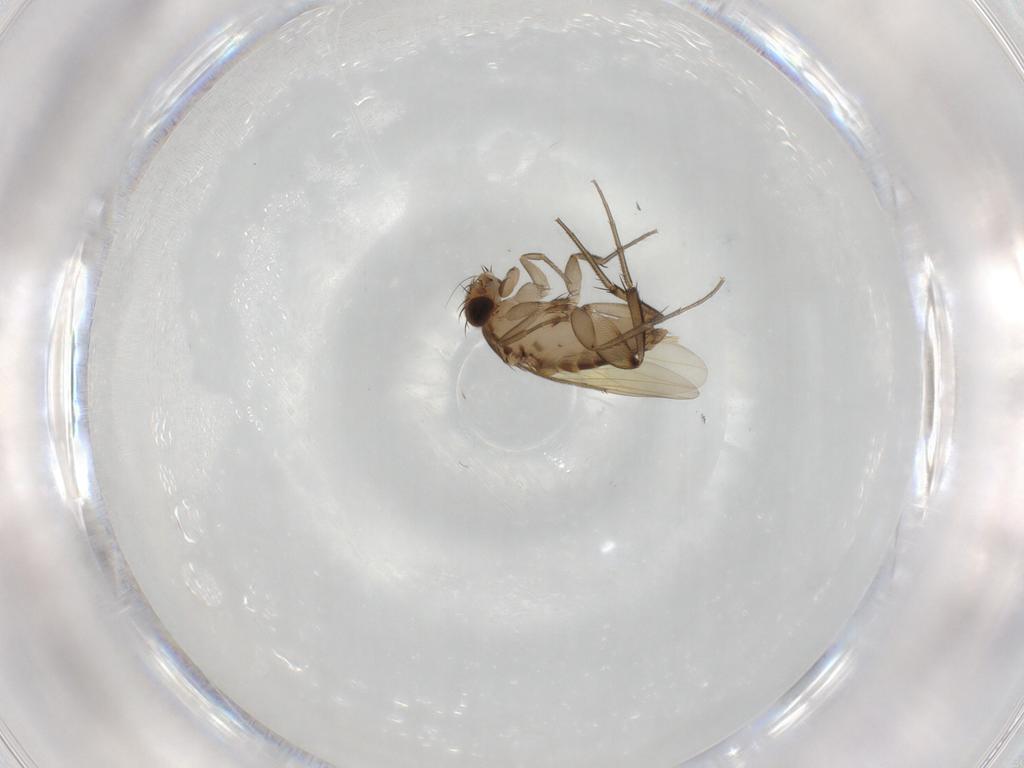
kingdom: Animalia
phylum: Arthropoda
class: Insecta
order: Diptera
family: Phoridae
